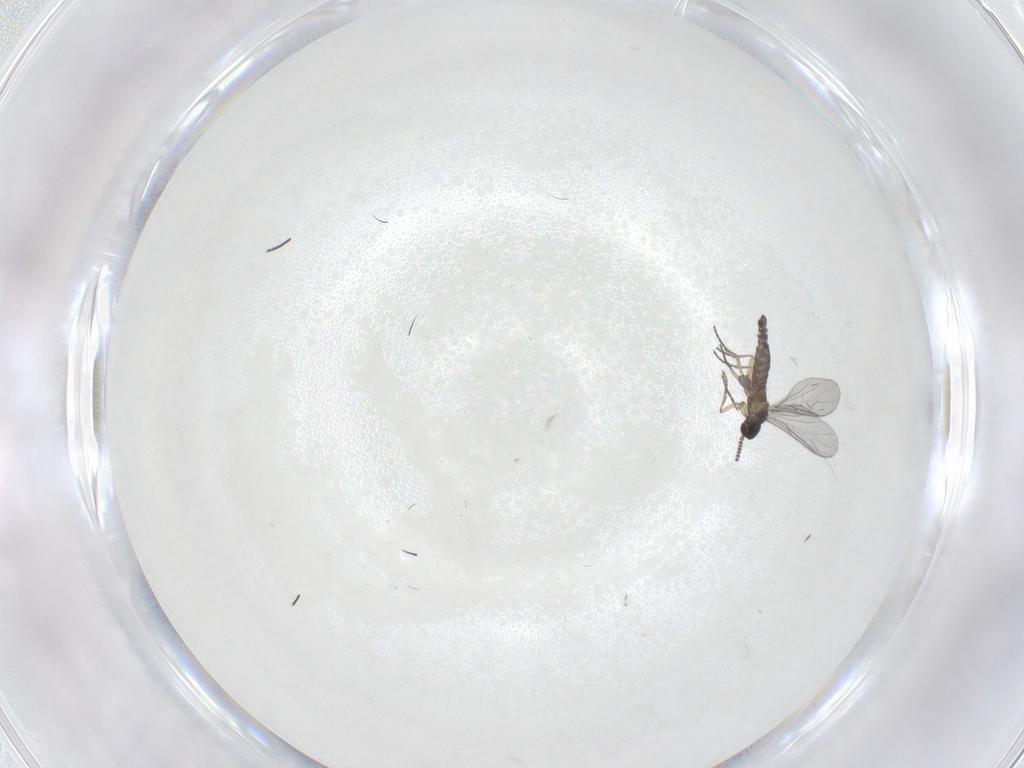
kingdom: Animalia
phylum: Arthropoda
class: Insecta
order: Diptera
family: Sciaridae
